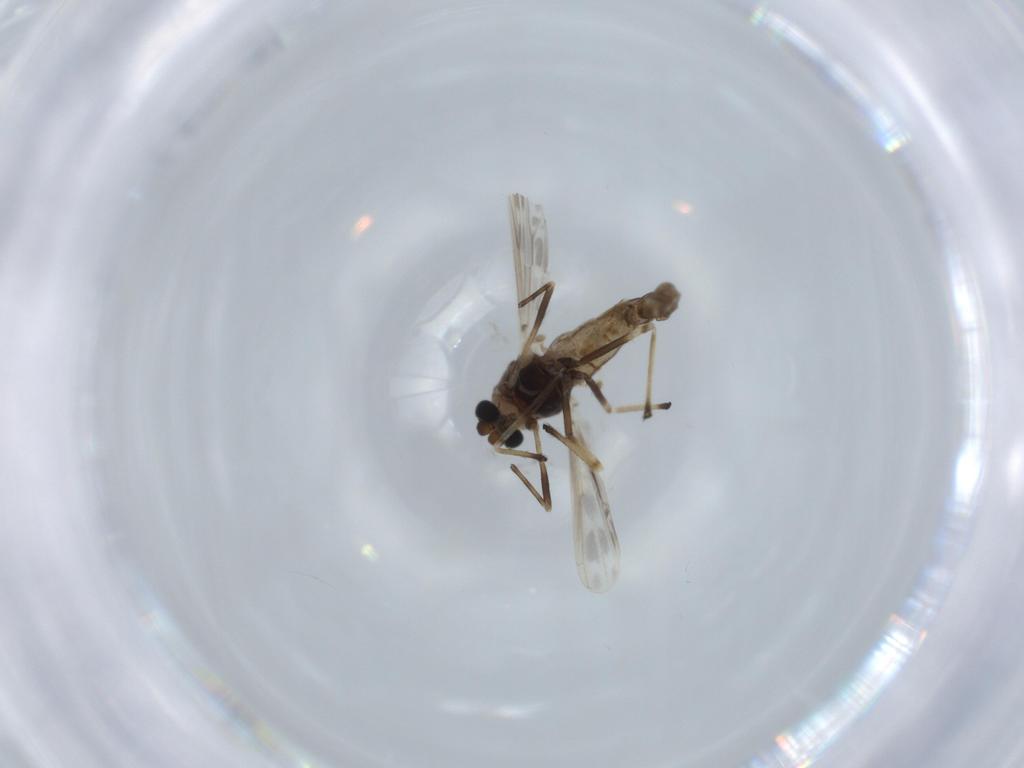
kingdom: Animalia
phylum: Arthropoda
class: Insecta
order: Diptera
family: Chironomidae
